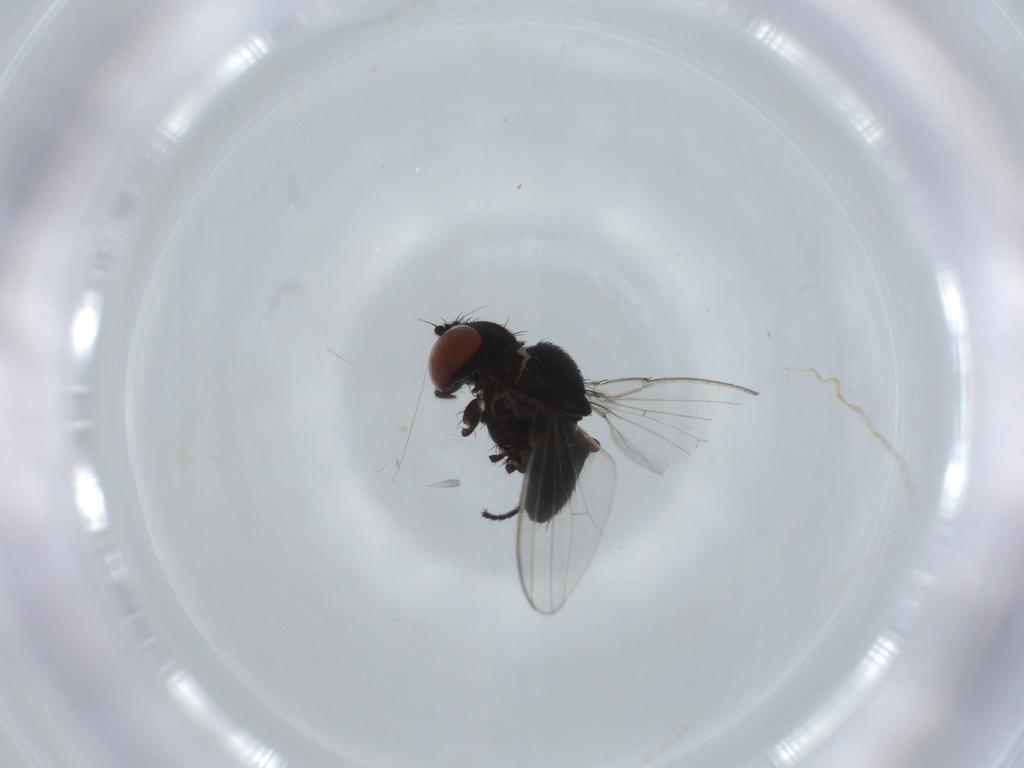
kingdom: Animalia
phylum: Arthropoda
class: Insecta
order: Diptera
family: Milichiidae
